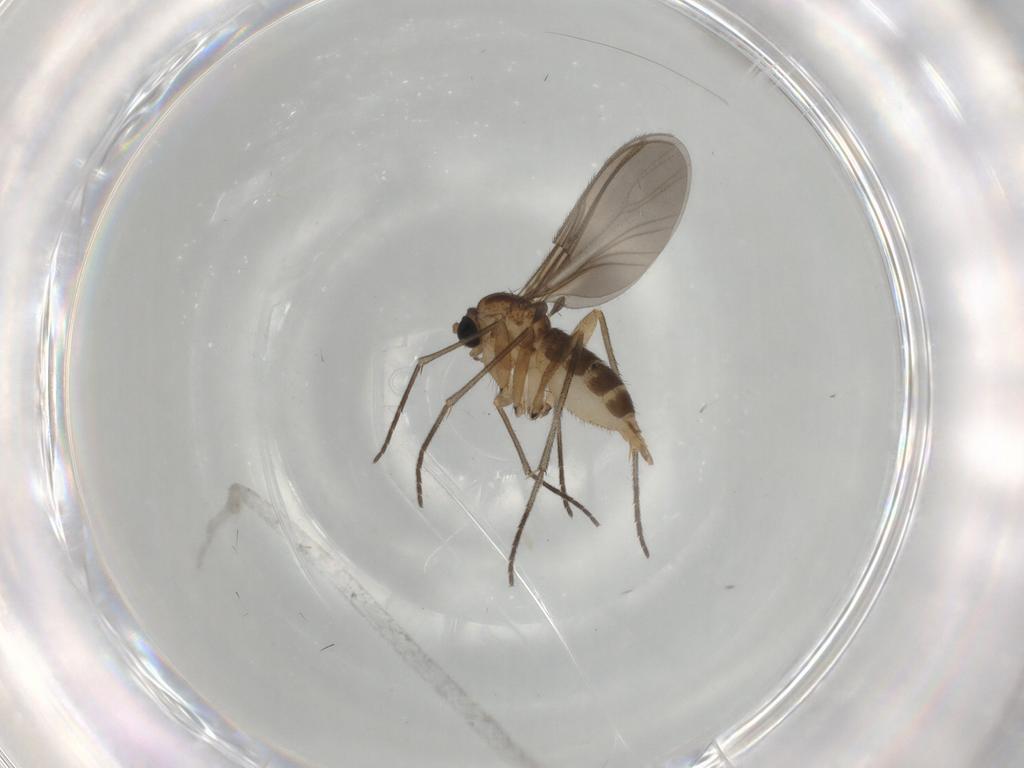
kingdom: Animalia
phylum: Arthropoda
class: Insecta
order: Diptera
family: Sciaridae
